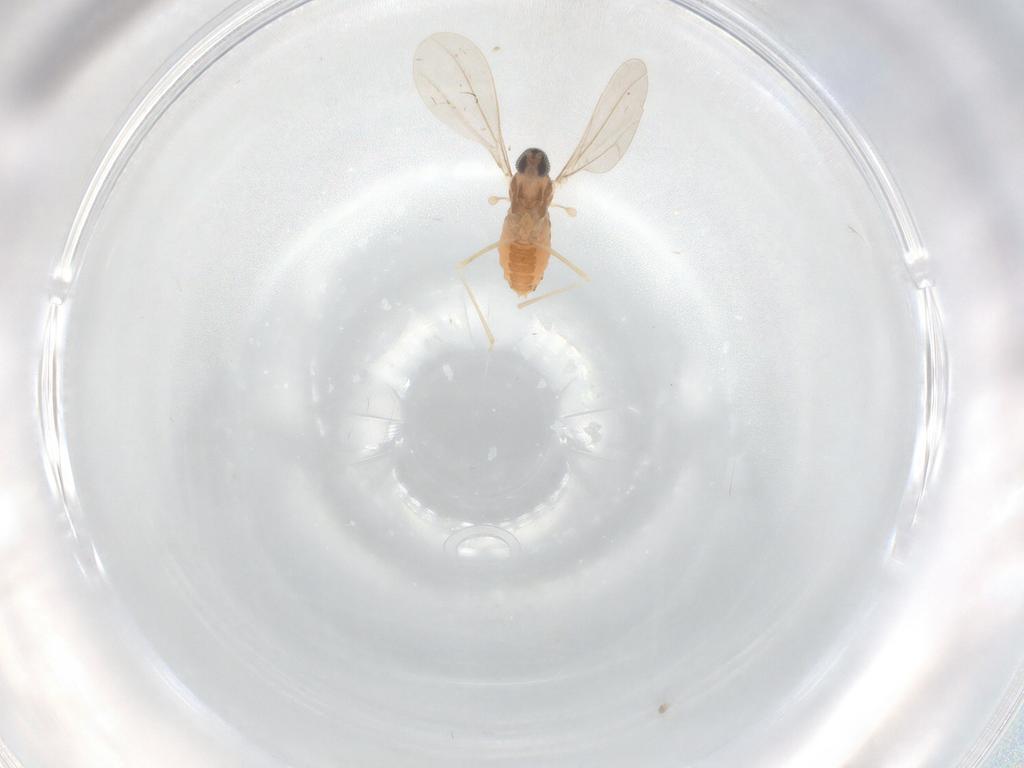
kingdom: Animalia
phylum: Arthropoda
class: Insecta
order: Diptera
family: Cecidomyiidae
